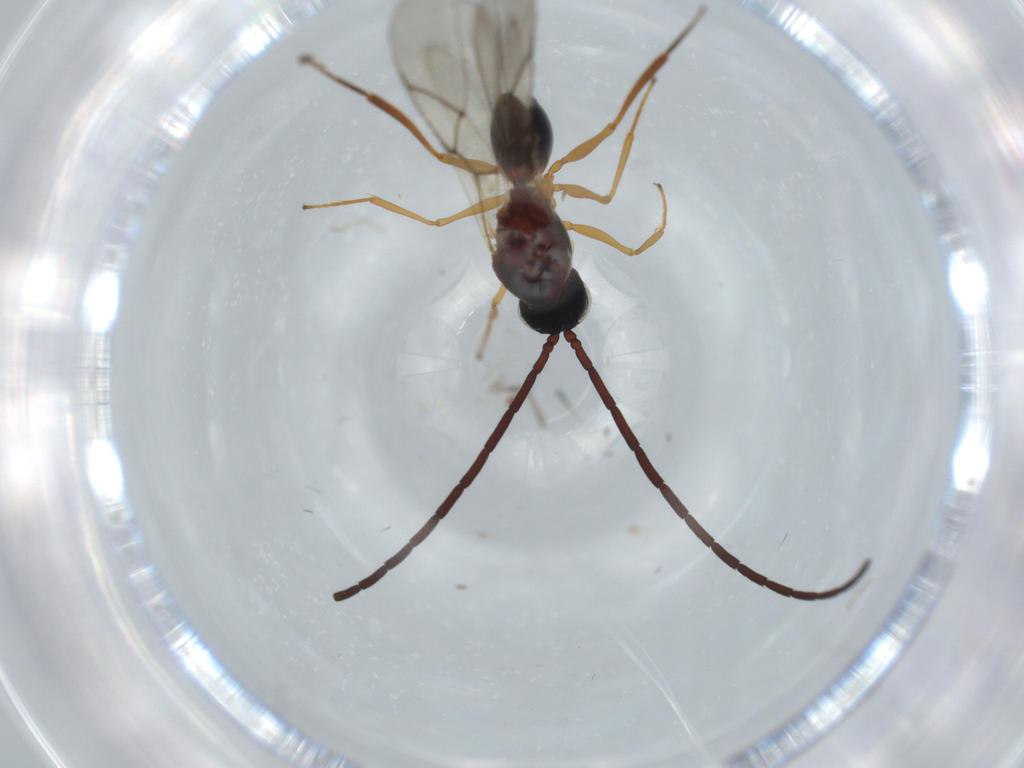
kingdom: Animalia
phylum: Arthropoda
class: Insecta
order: Hymenoptera
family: Figitidae
